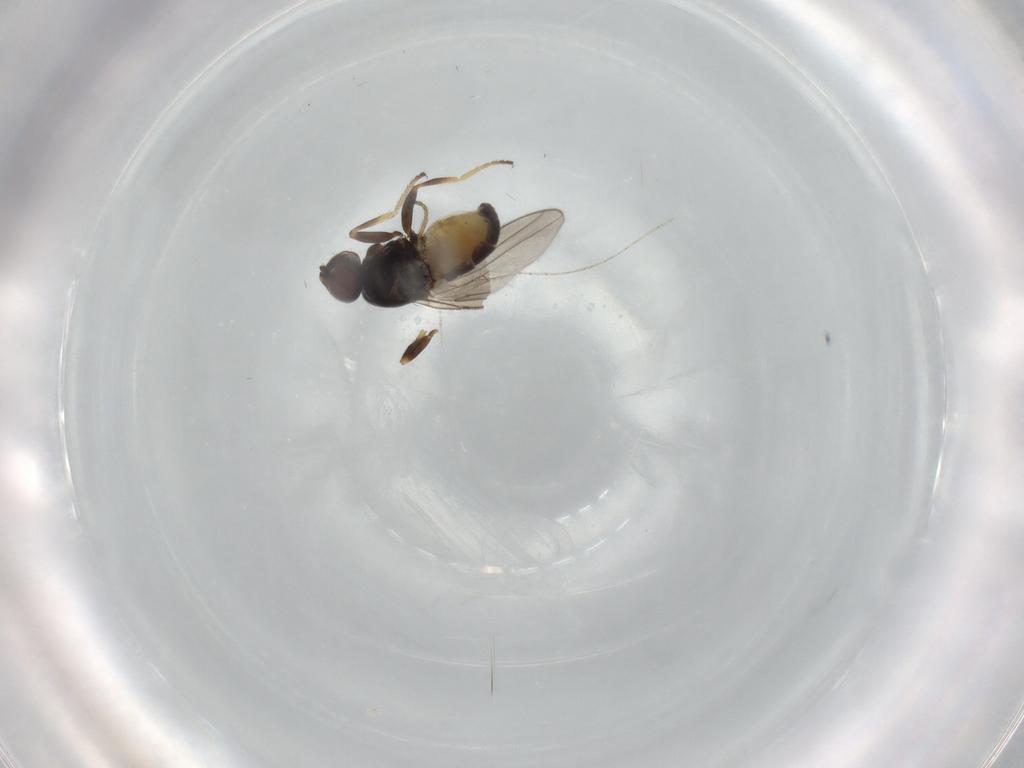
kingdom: Animalia
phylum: Arthropoda
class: Insecta
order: Diptera
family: Chloropidae
